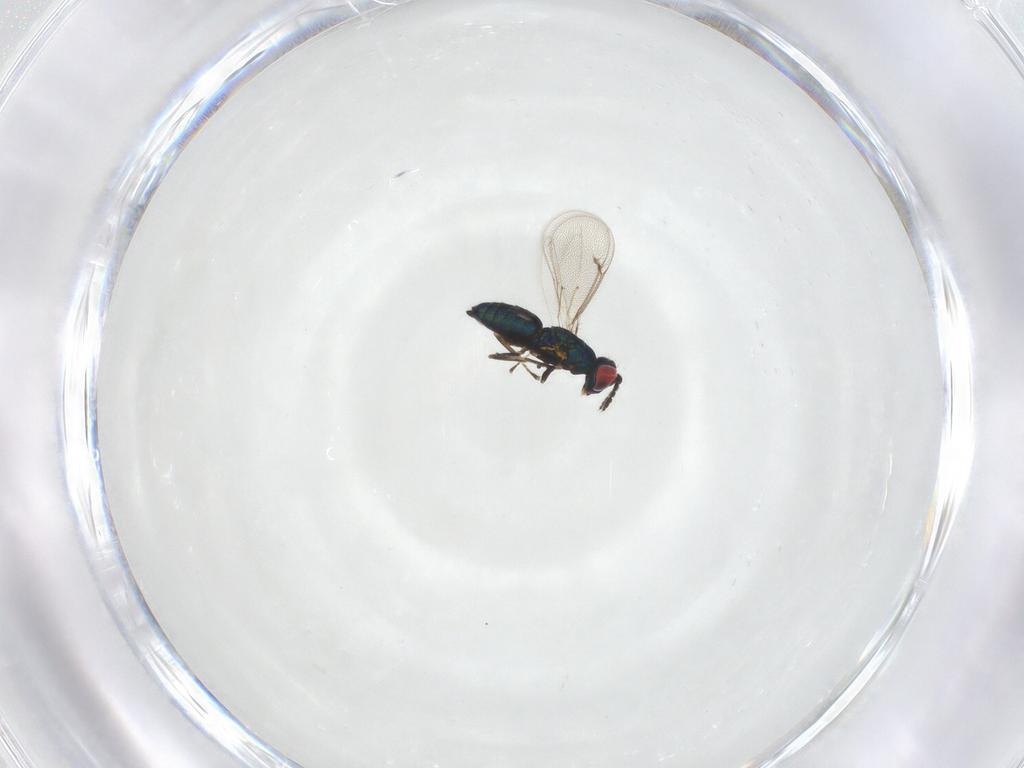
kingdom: Animalia
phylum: Arthropoda
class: Insecta
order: Hymenoptera
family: Eulophidae
